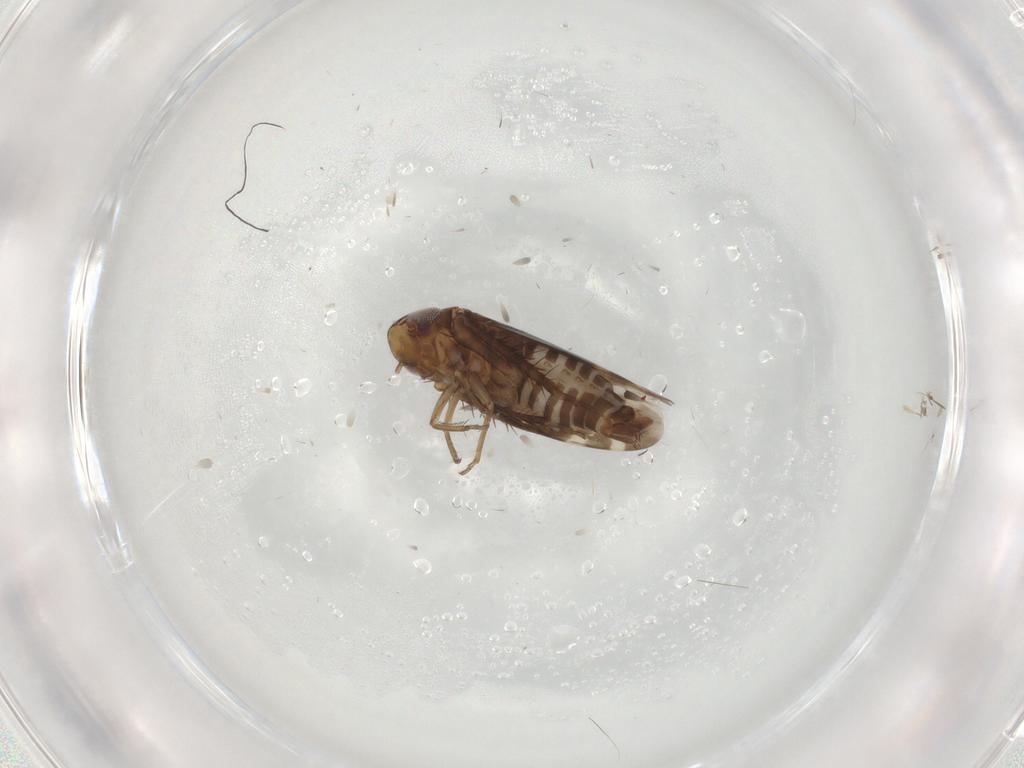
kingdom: Animalia
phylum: Arthropoda
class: Insecta
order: Hemiptera
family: Cicadellidae
